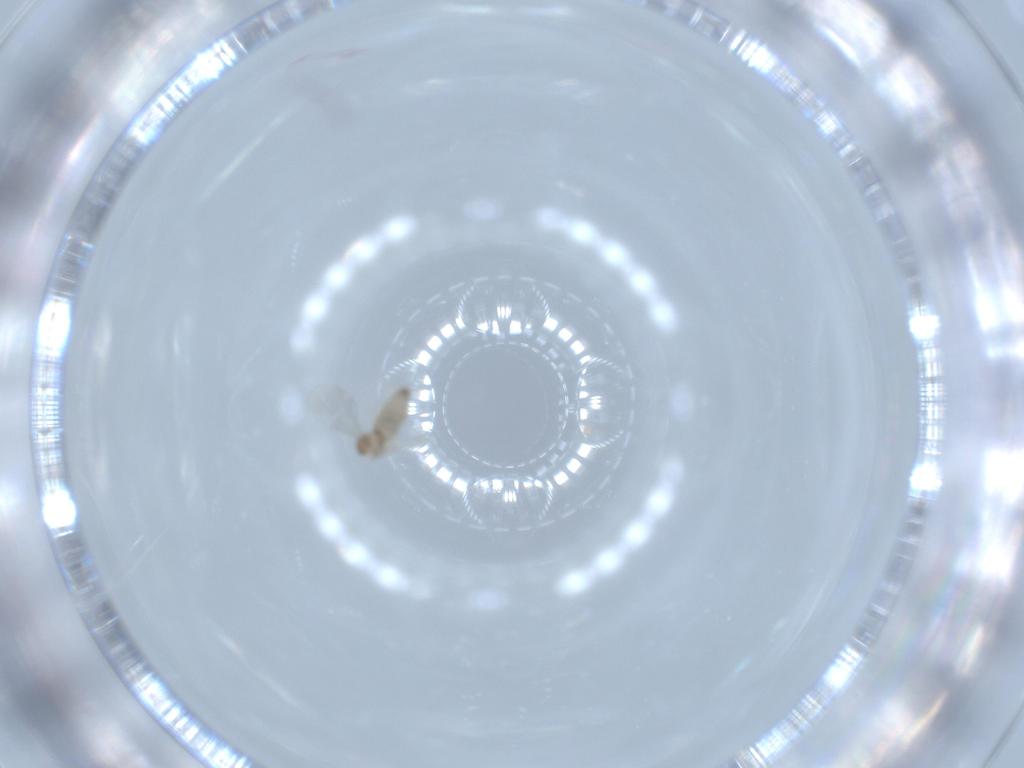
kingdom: Animalia
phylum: Arthropoda
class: Insecta
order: Diptera
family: Cecidomyiidae
